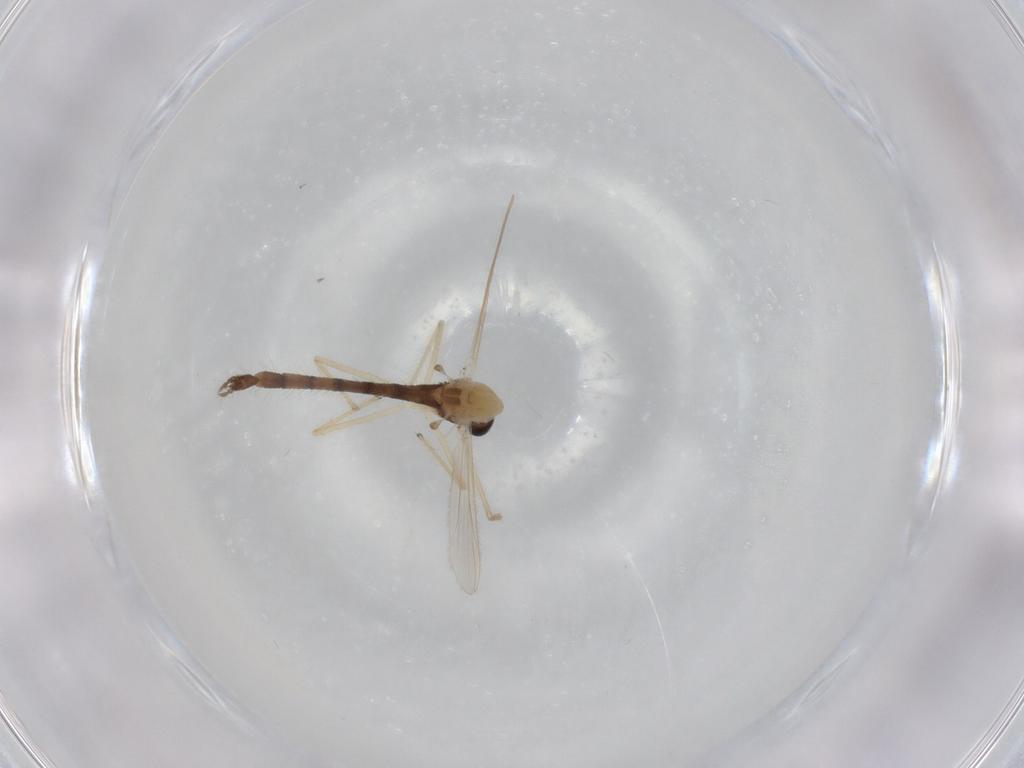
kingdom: Animalia
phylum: Arthropoda
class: Insecta
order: Diptera
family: Chironomidae
